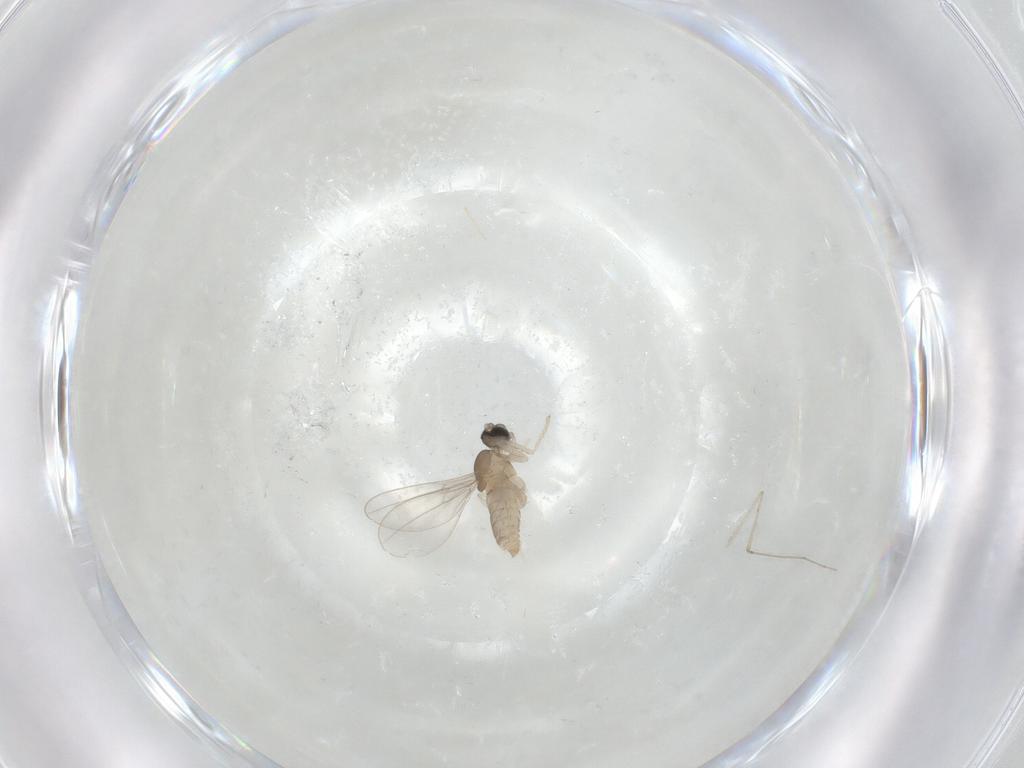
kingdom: Animalia
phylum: Arthropoda
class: Insecta
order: Diptera
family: Cecidomyiidae
